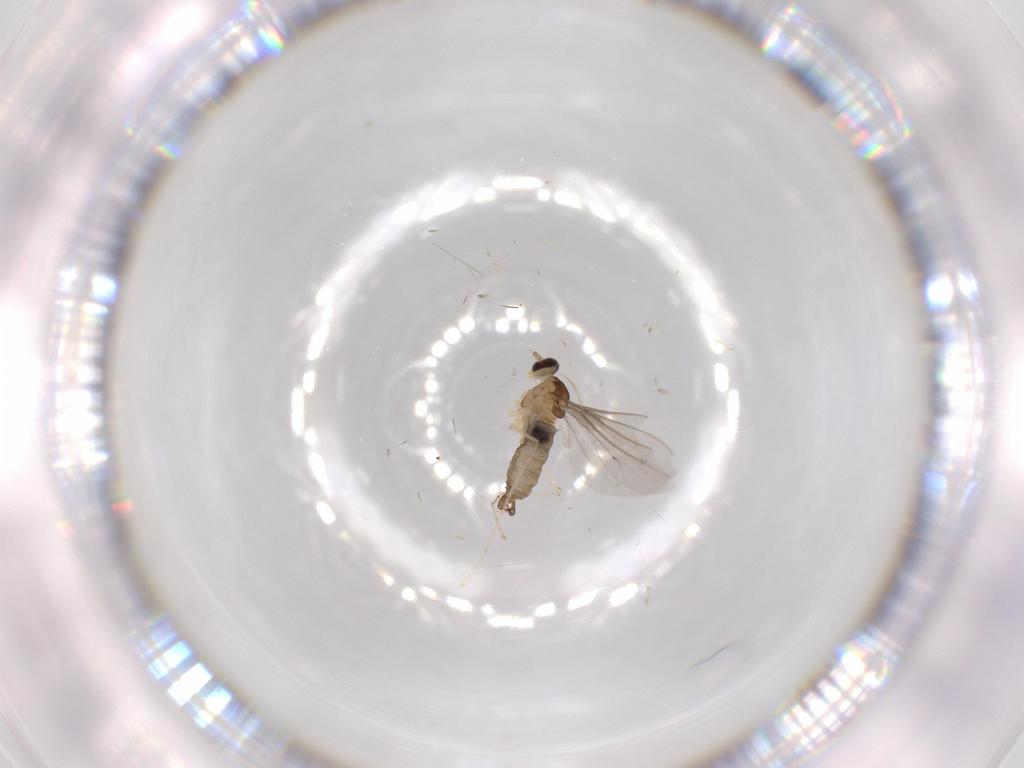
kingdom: Animalia
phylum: Arthropoda
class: Insecta
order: Diptera
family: Cecidomyiidae
